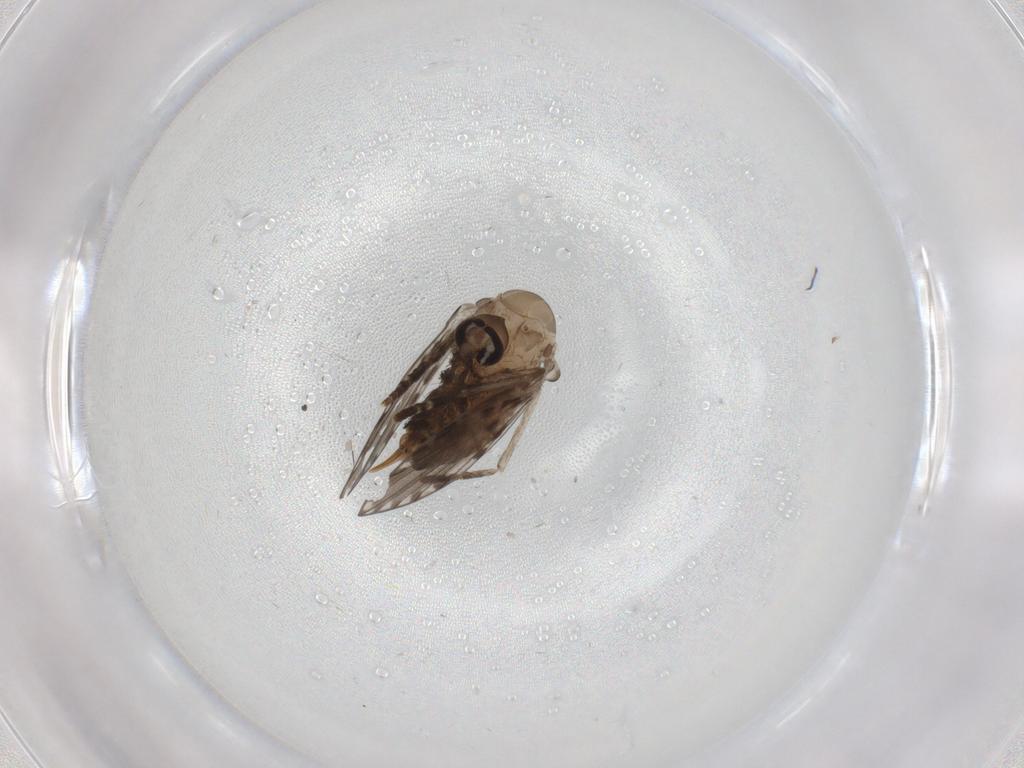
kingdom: Animalia
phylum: Arthropoda
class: Insecta
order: Diptera
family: Psychodidae
